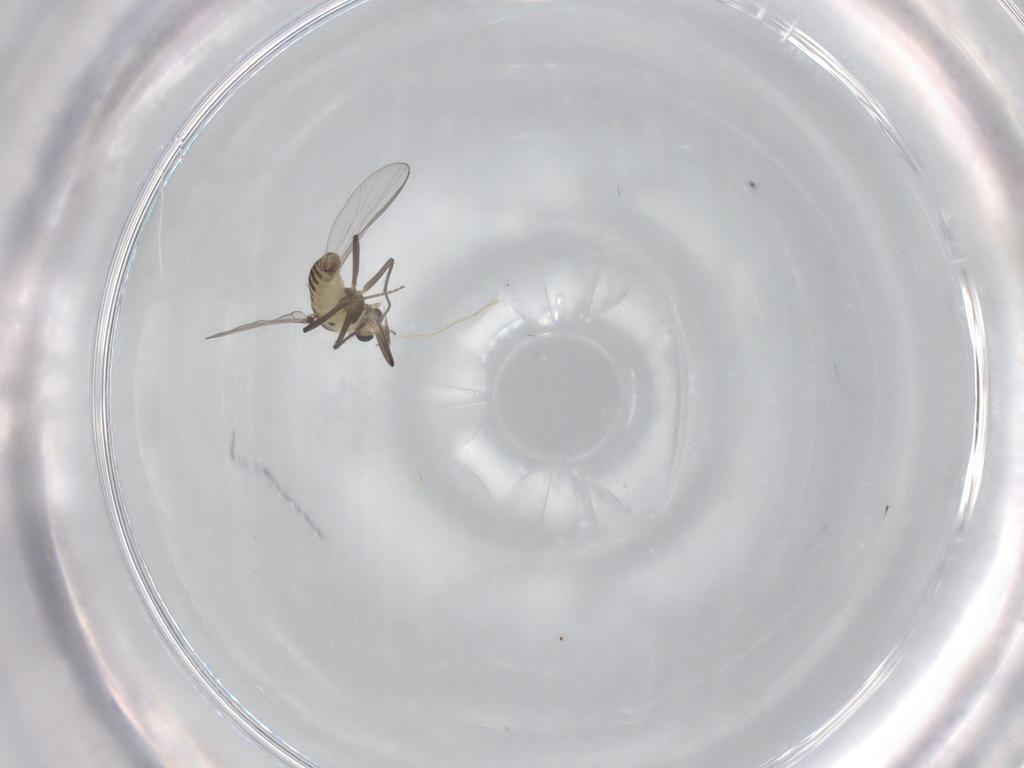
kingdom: Animalia
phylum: Arthropoda
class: Insecta
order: Diptera
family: Chironomidae
